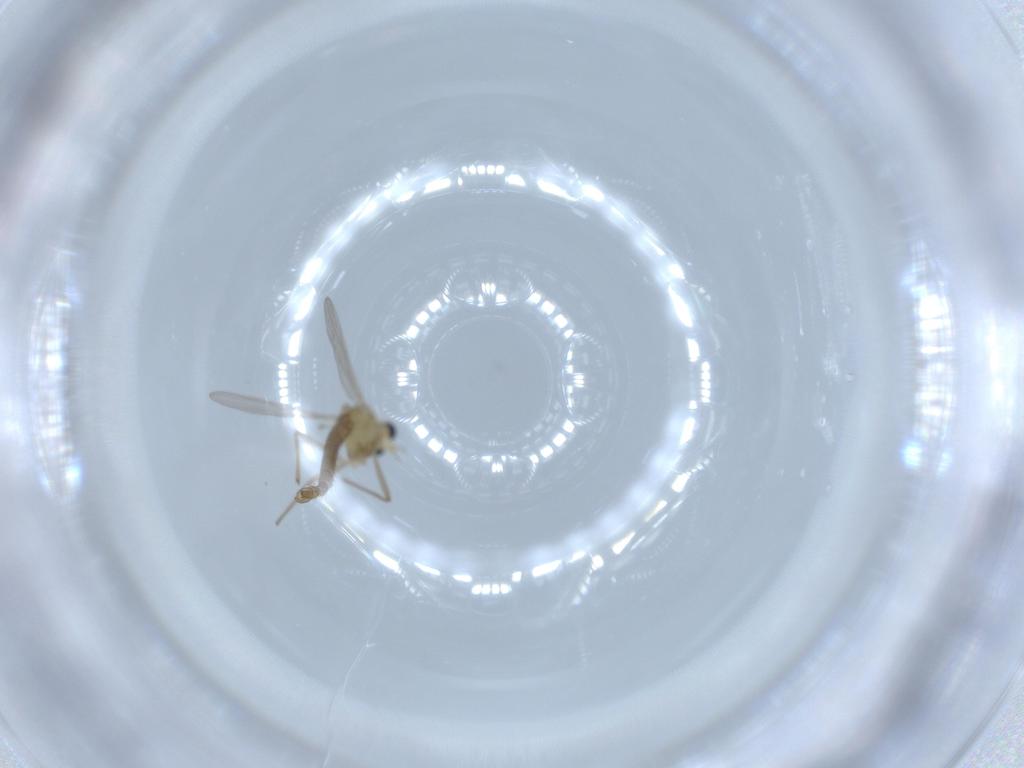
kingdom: Animalia
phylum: Arthropoda
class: Insecta
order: Diptera
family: Chironomidae
